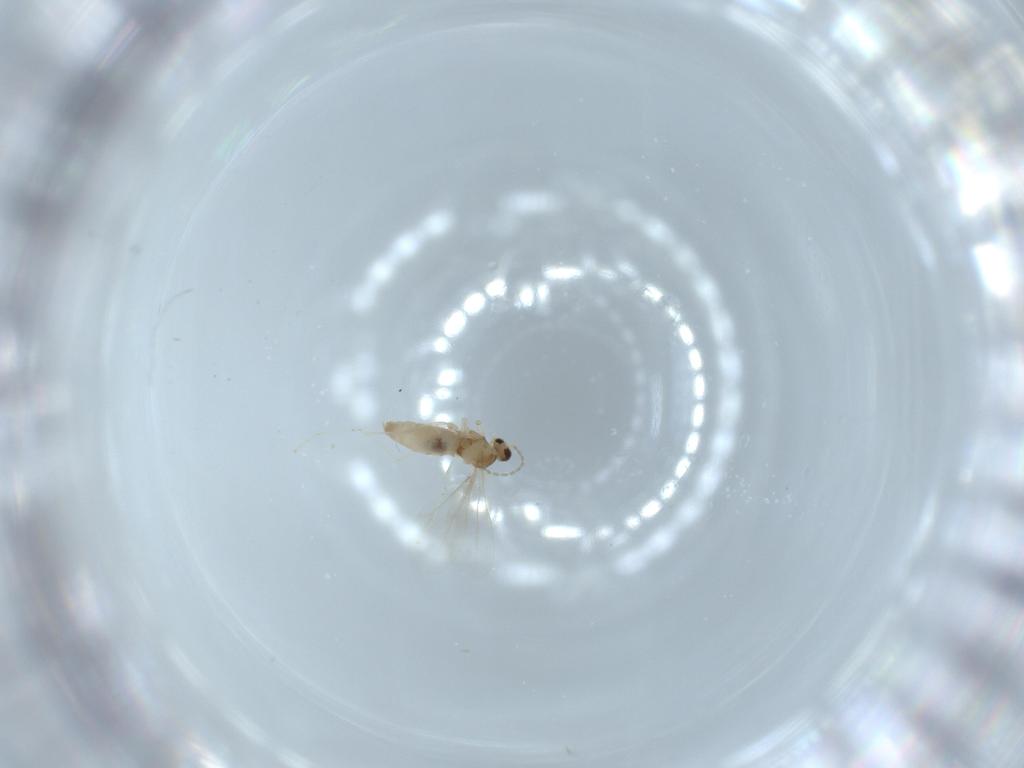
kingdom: Animalia
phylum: Arthropoda
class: Insecta
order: Diptera
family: Cecidomyiidae
